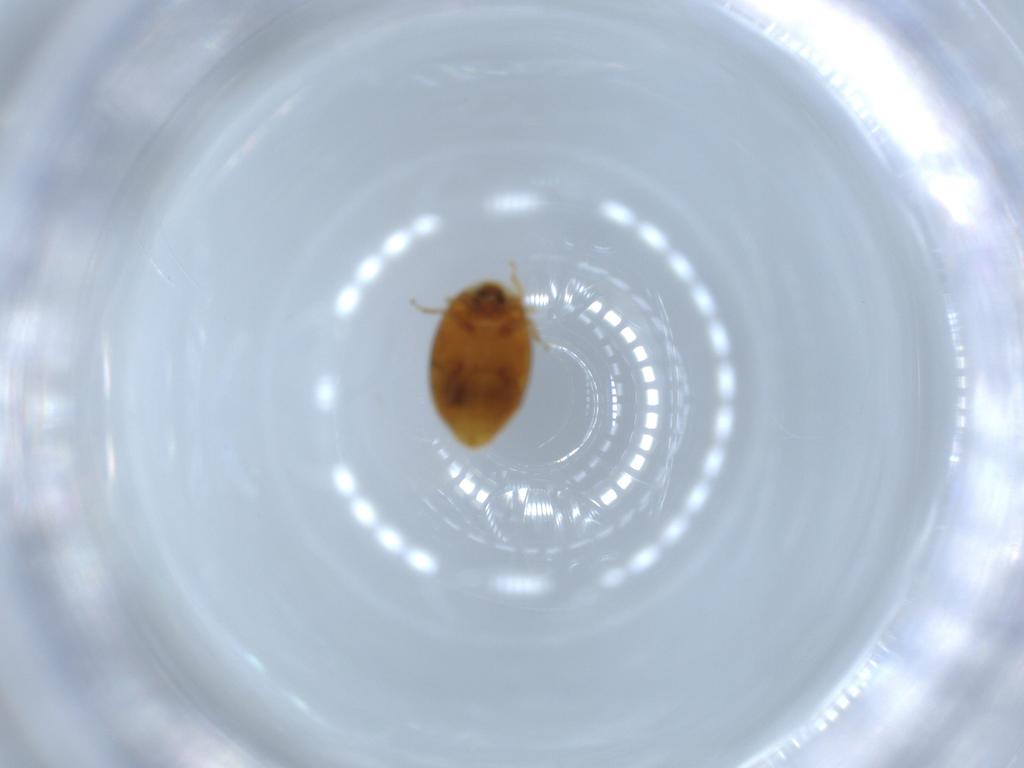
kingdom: Animalia
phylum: Arthropoda
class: Insecta
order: Coleoptera
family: Corylophidae
